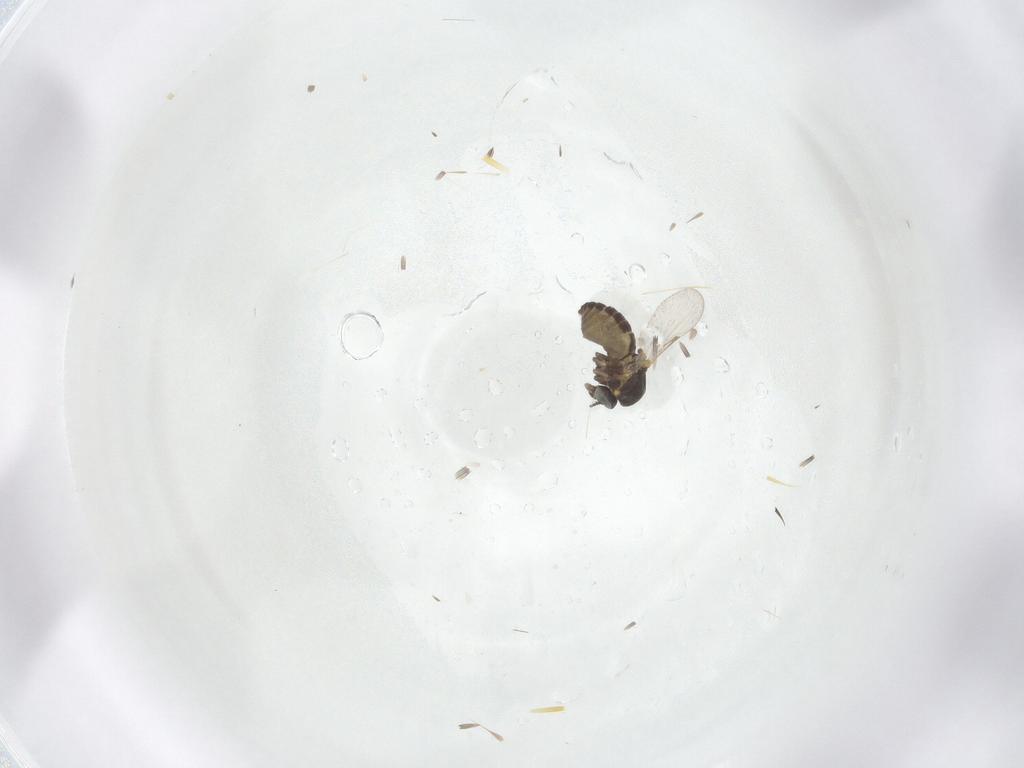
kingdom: Animalia
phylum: Arthropoda
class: Insecta
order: Diptera
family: Ceratopogonidae
